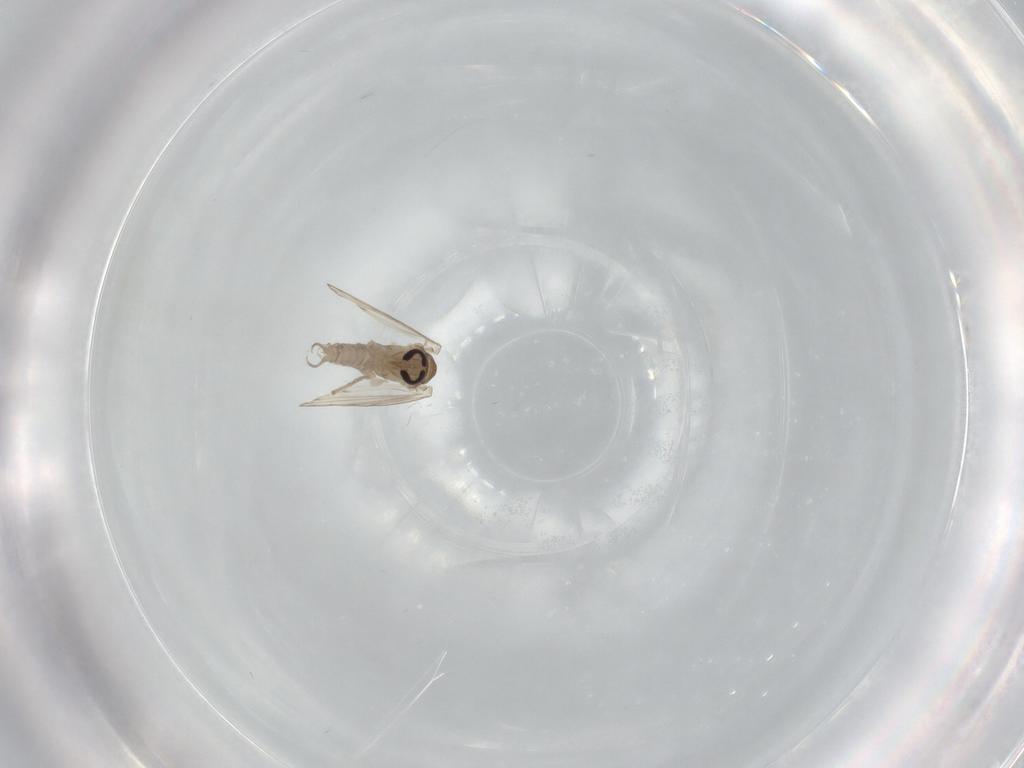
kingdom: Animalia
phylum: Arthropoda
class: Insecta
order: Diptera
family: Psychodidae
